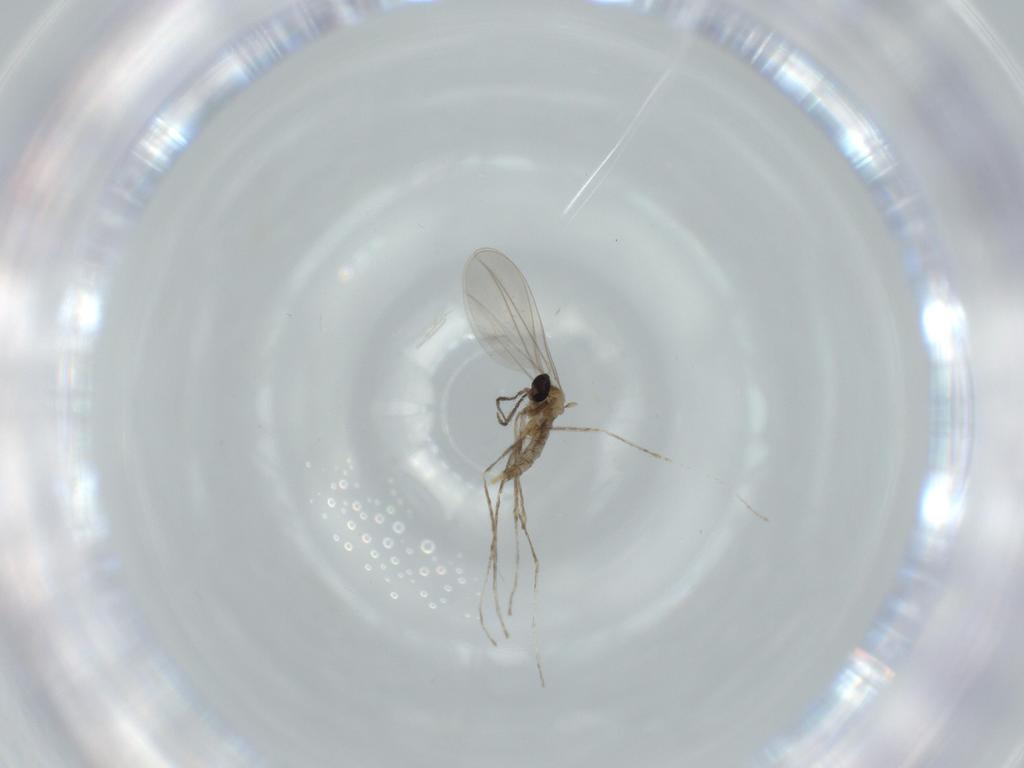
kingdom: Animalia
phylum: Arthropoda
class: Insecta
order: Diptera
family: Cecidomyiidae
